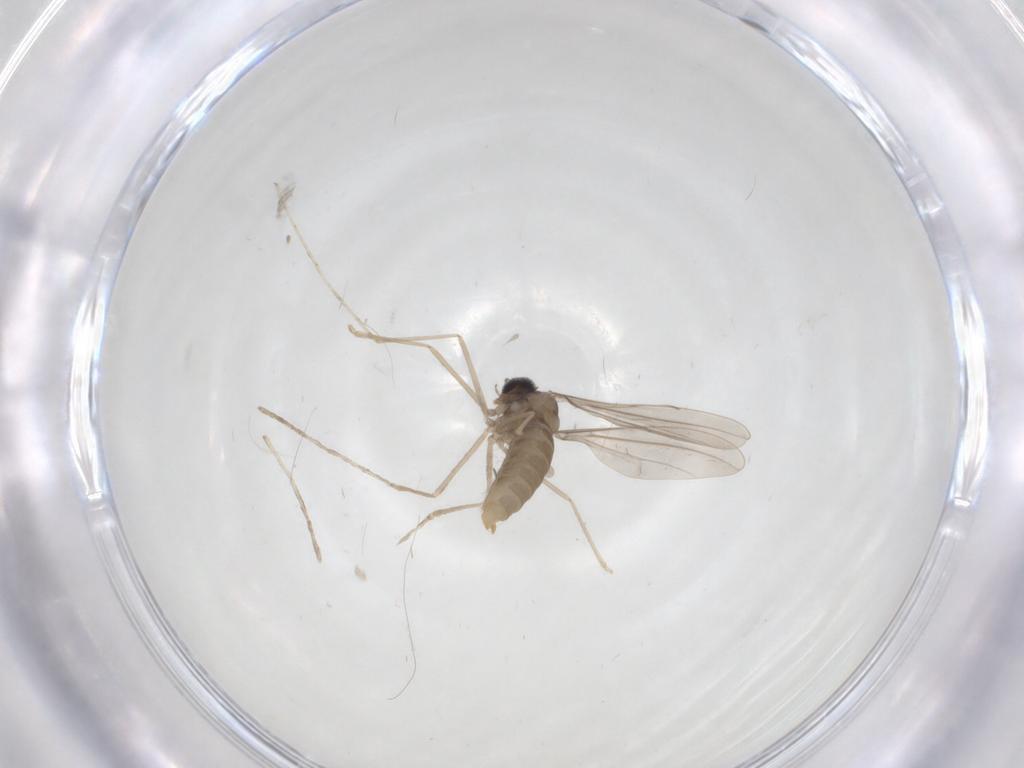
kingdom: Animalia
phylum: Arthropoda
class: Insecta
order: Diptera
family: Cecidomyiidae
